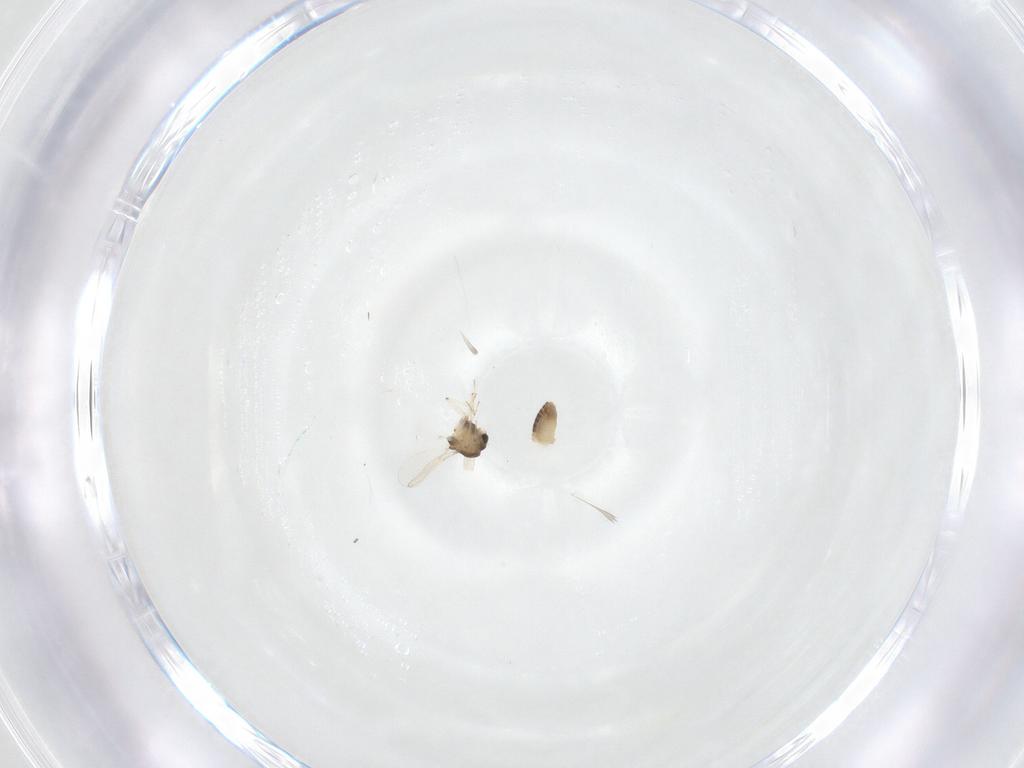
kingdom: Animalia
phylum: Arthropoda
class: Insecta
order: Diptera
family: Chironomidae
